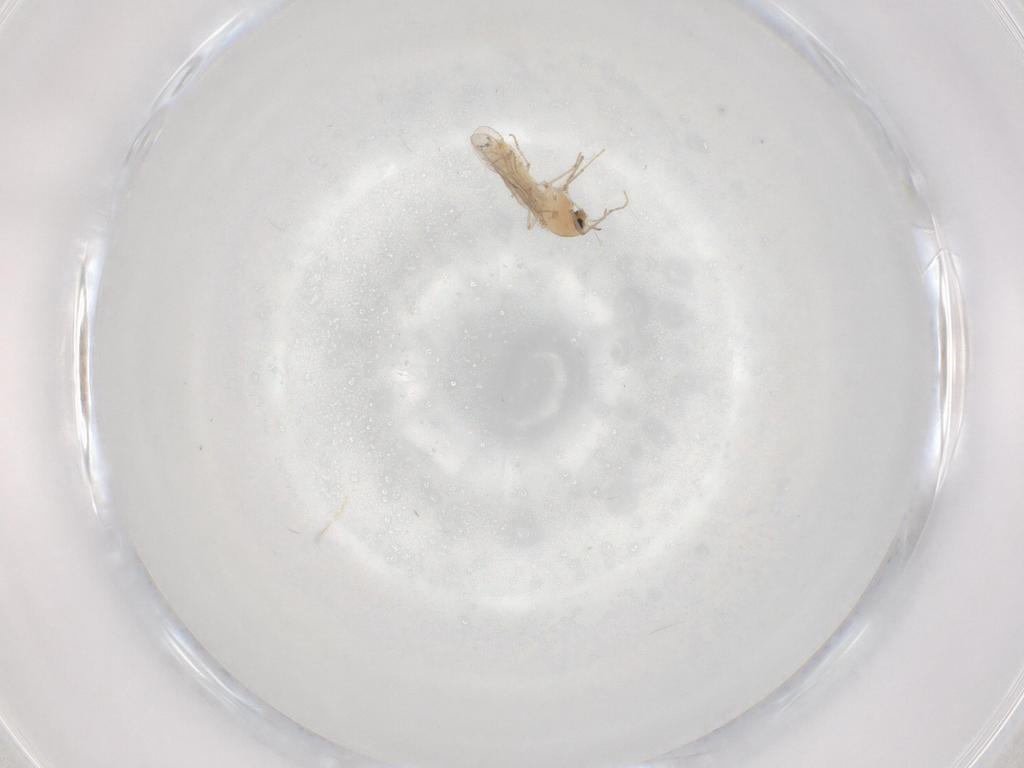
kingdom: Animalia
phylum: Arthropoda
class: Insecta
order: Diptera
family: Chironomidae
